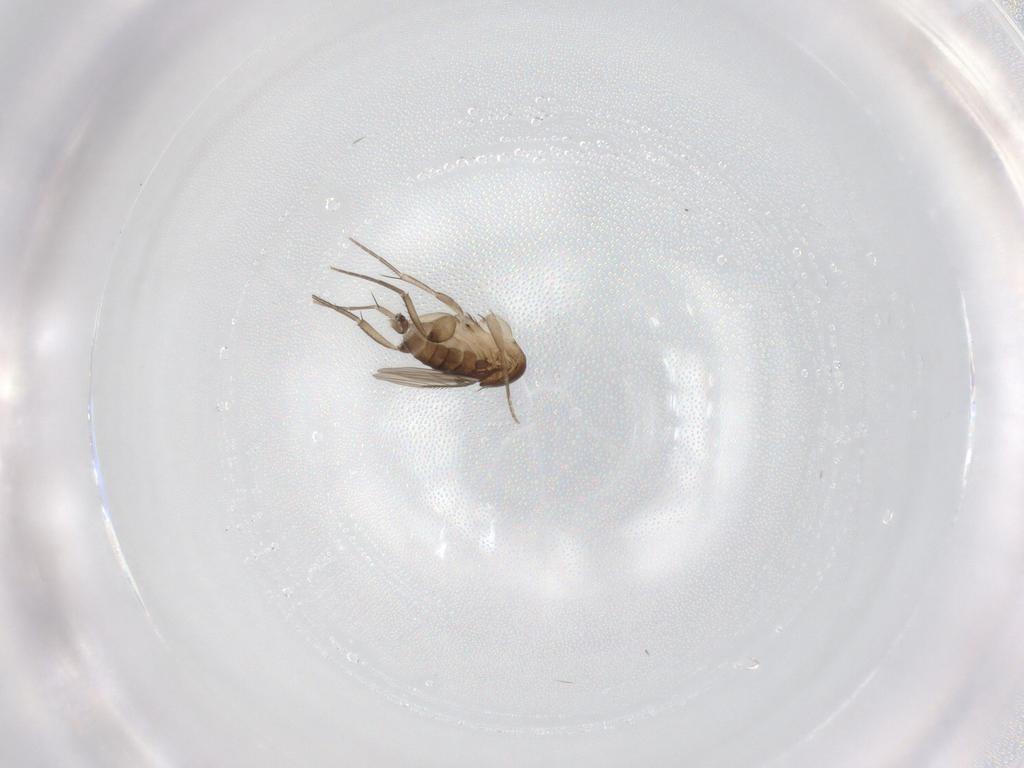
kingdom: Animalia
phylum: Arthropoda
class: Insecta
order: Diptera
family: Phoridae
